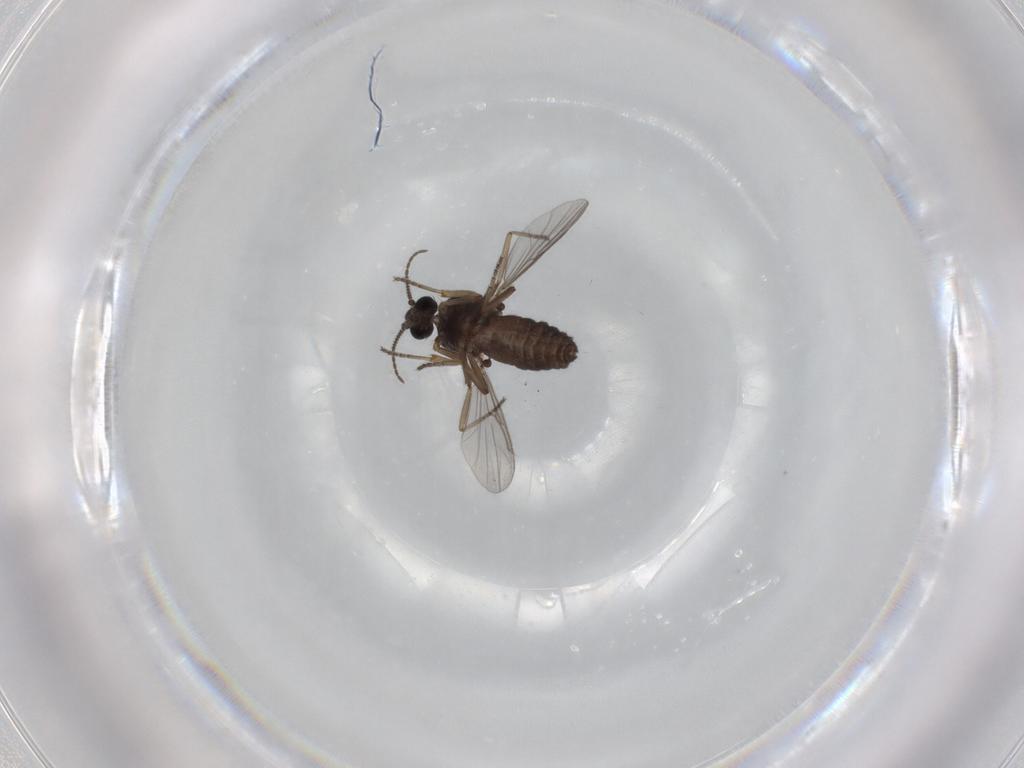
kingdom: Animalia
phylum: Arthropoda
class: Insecta
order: Diptera
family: Ceratopogonidae
